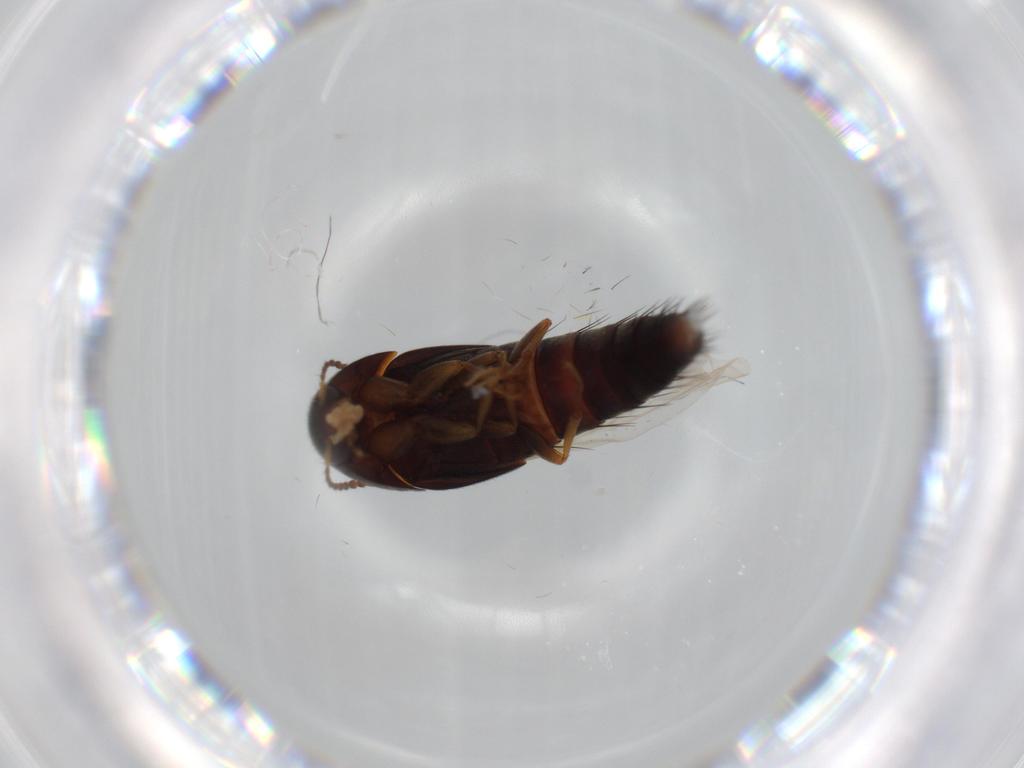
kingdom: Animalia
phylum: Arthropoda
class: Insecta
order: Coleoptera
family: Staphylinidae
